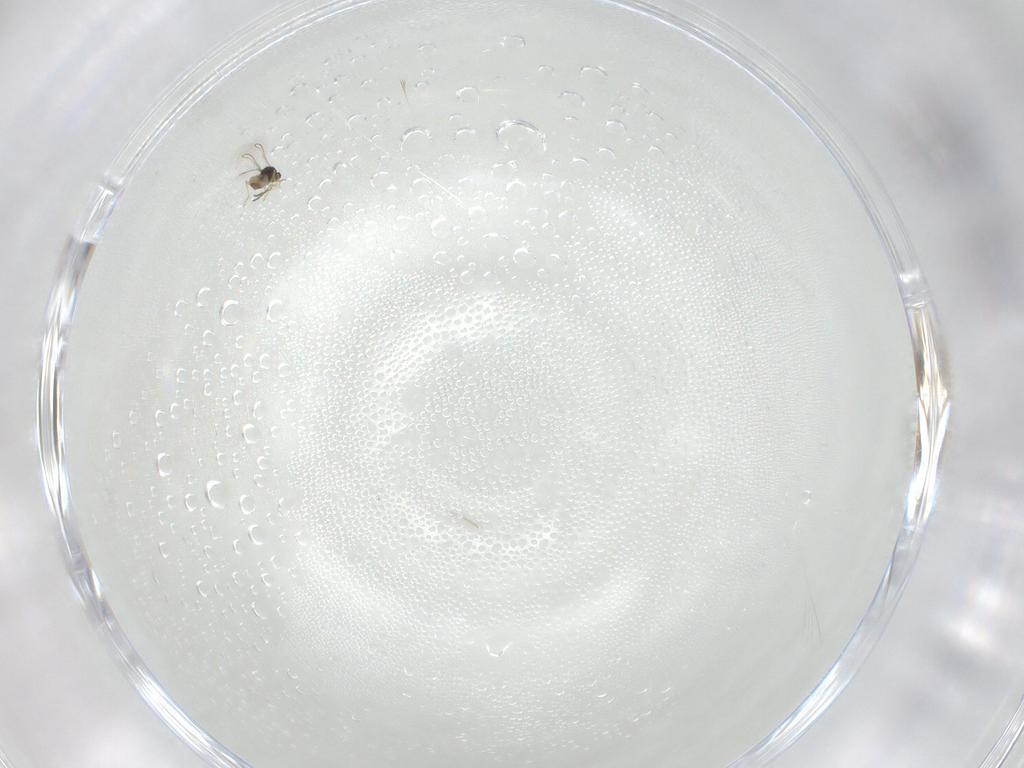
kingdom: Animalia
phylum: Arthropoda
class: Arachnida
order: Trombidiformes
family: Eupodidae
